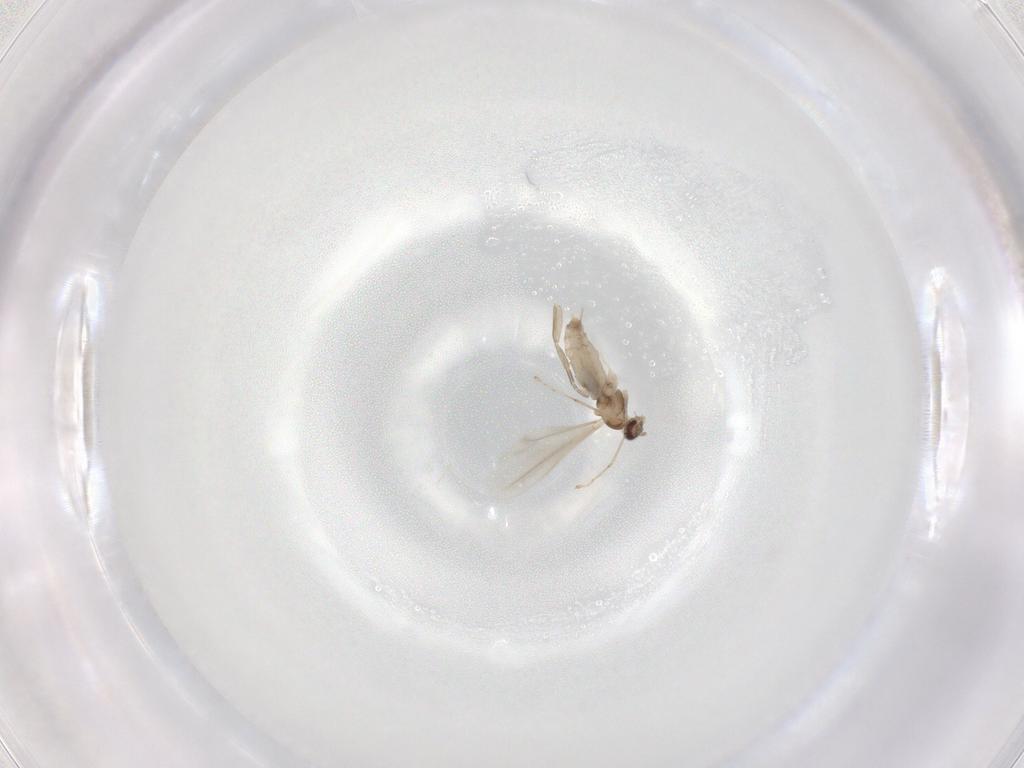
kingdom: Animalia
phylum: Arthropoda
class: Insecta
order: Diptera
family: Cecidomyiidae
